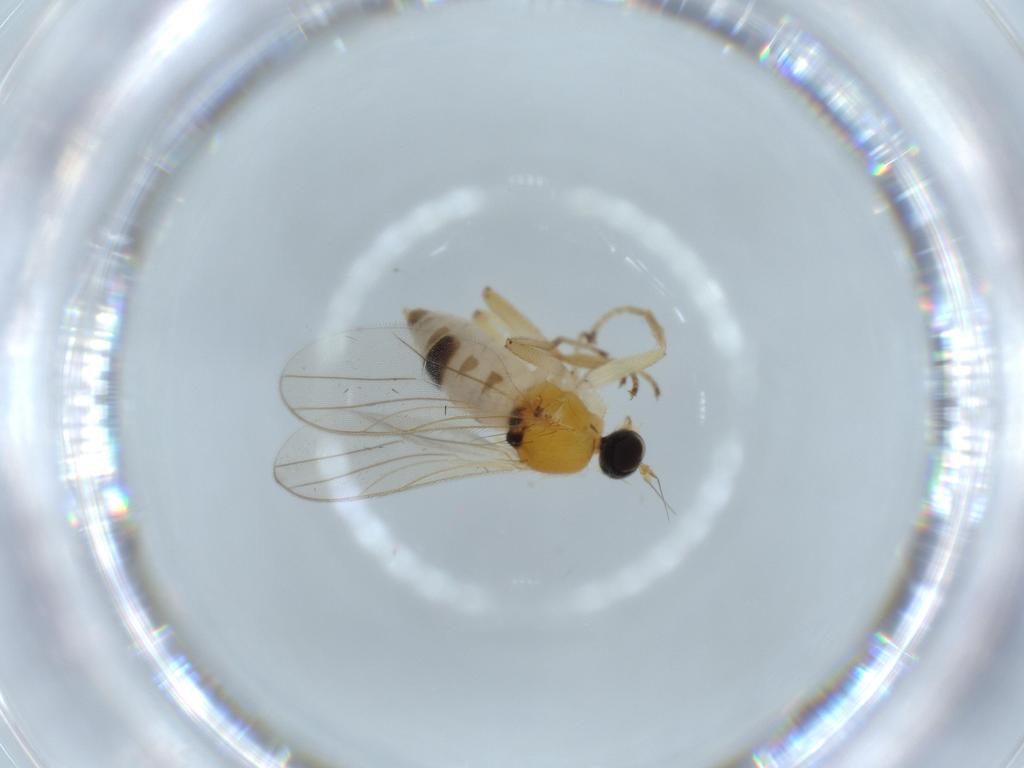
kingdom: Animalia
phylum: Arthropoda
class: Insecta
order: Diptera
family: Hybotidae
